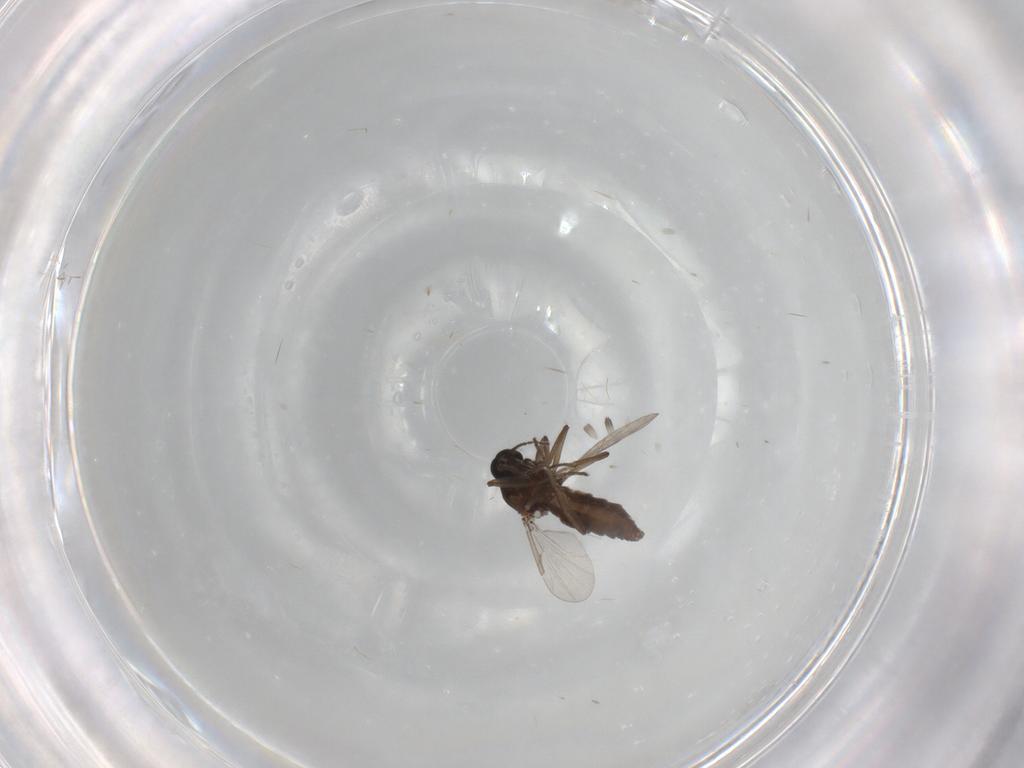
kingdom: Animalia
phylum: Arthropoda
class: Insecta
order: Diptera
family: Ceratopogonidae
